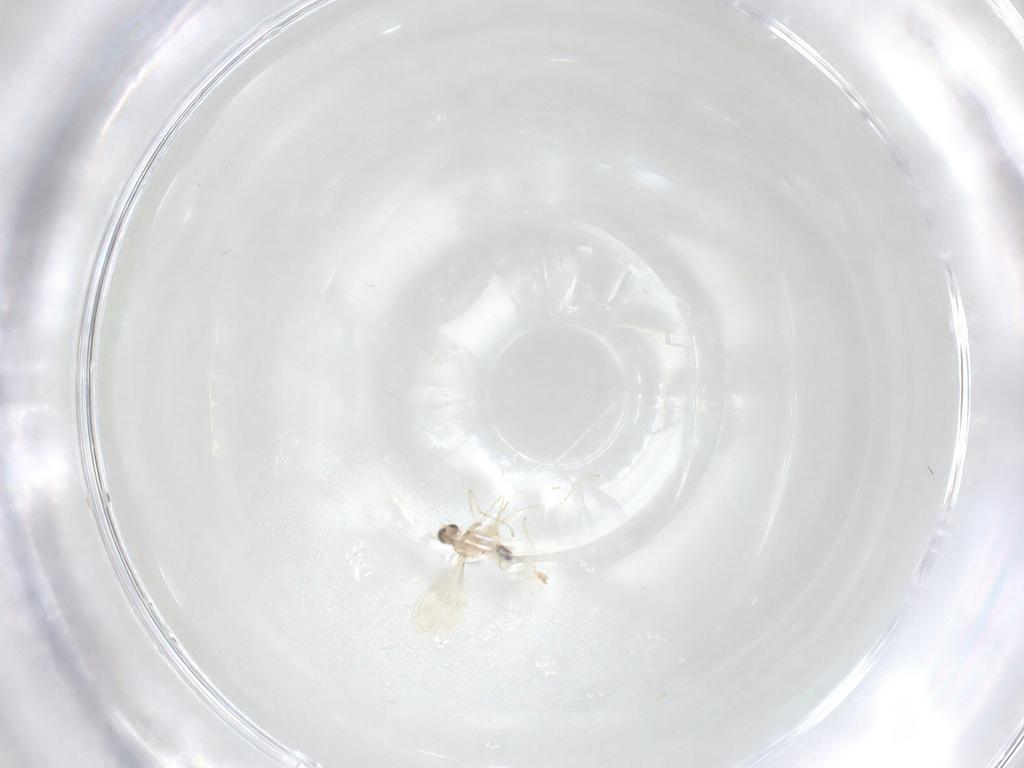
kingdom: Animalia
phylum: Arthropoda
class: Insecta
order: Diptera
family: Cecidomyiidae
